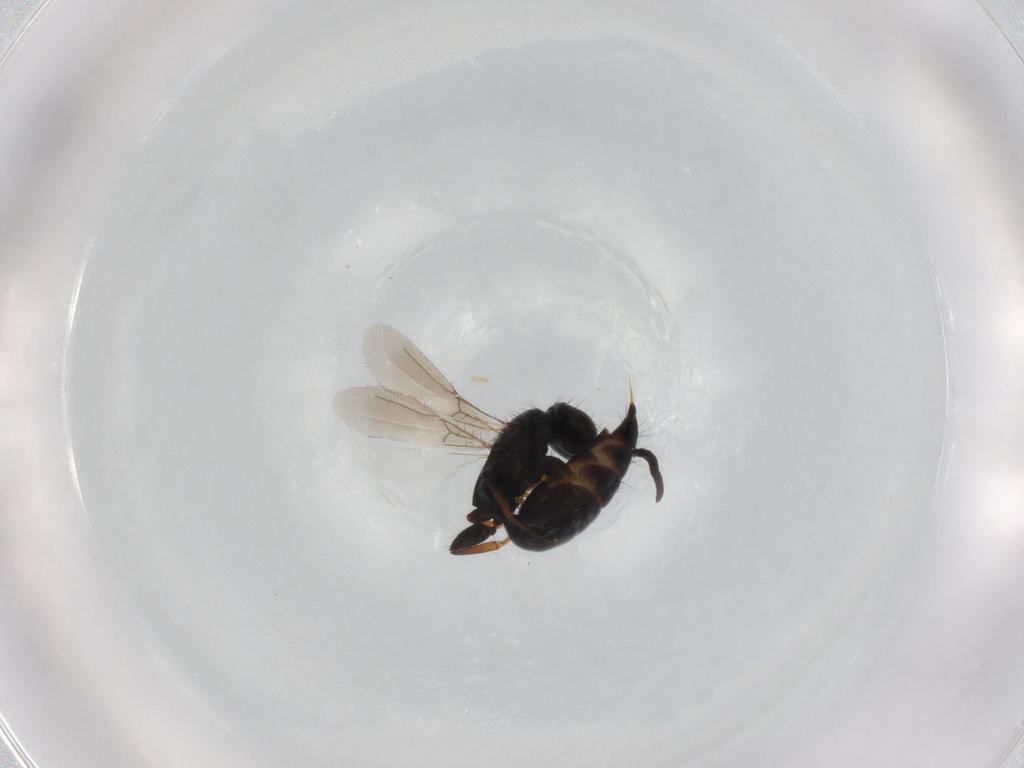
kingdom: Animalia
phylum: Arthropoda
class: Insecta
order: Hymenoptera
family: Bethylidae
